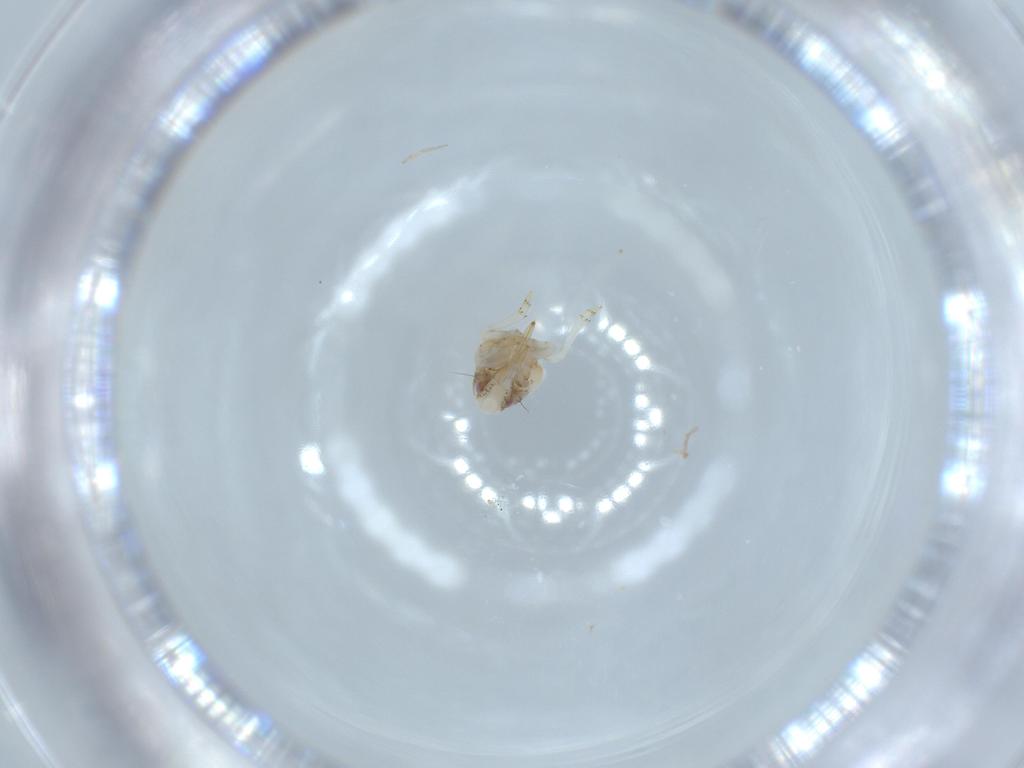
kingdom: Animalia
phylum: Arthropoda
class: Insecta
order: Hemiptera
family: Acanaloniidae
